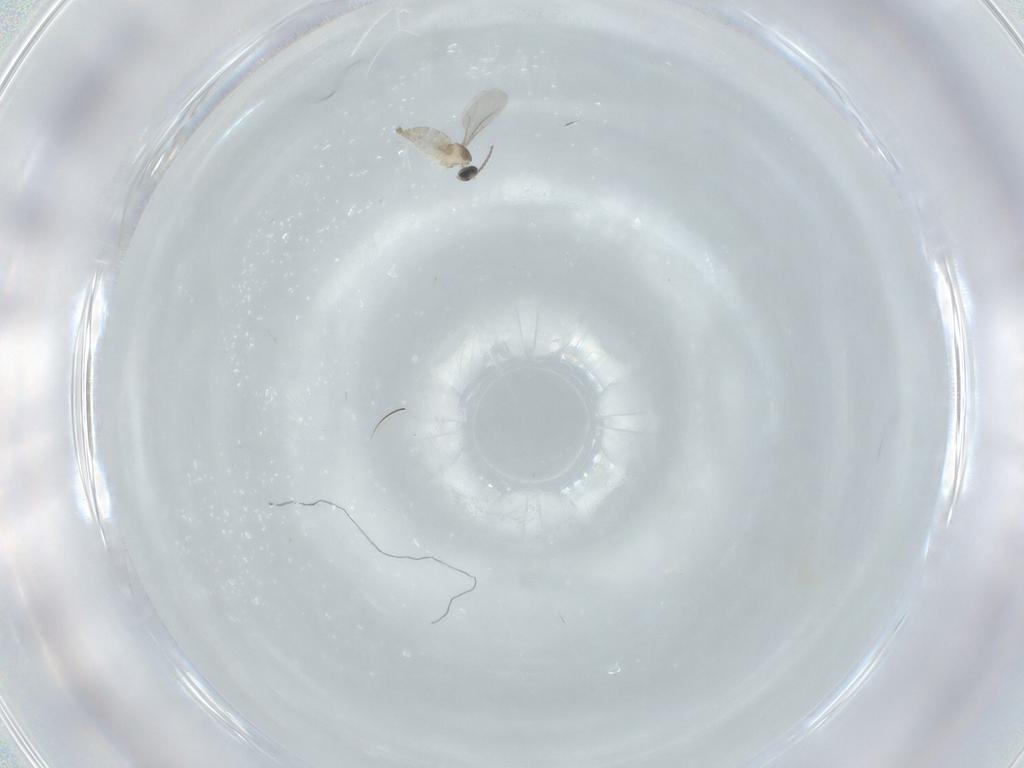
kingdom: Animalia
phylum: Arthropoda
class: Insecta
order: Diptera
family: Cecidomyiidae
